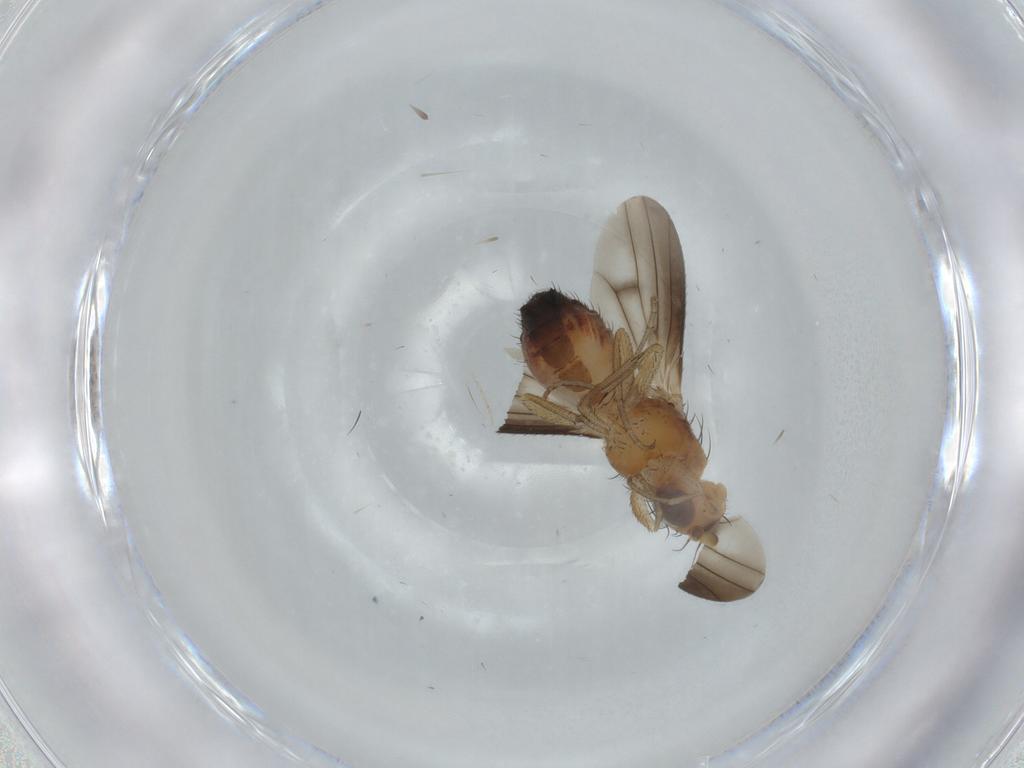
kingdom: Animalia
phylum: Arthropoda
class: Insecta
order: Diptera
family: Heleomyzidae
